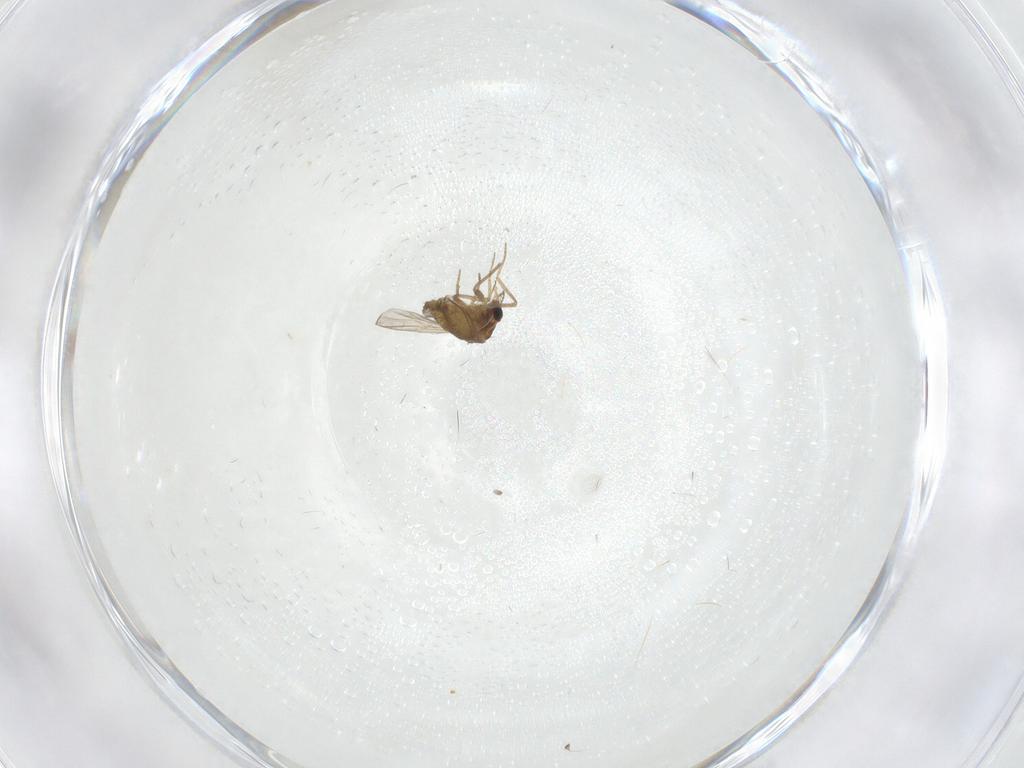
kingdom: Animalia
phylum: Arthropoda
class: Insecta
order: Diptera
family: Chironomidae
